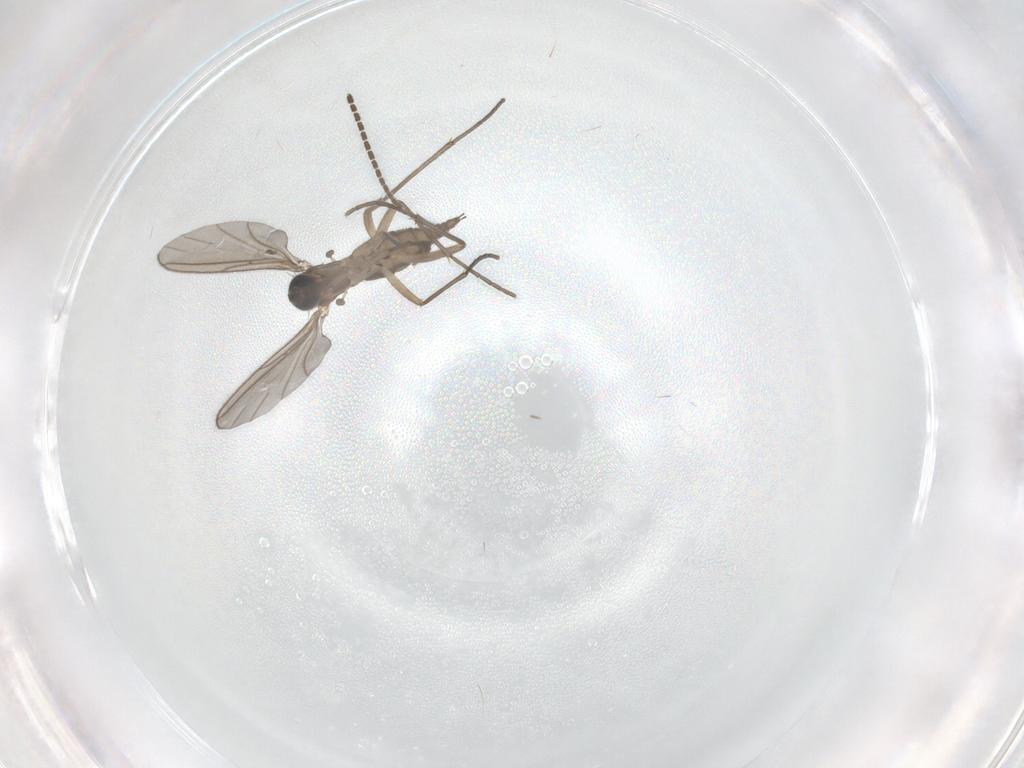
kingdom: Animalia
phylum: Arthropoda
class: Insecta
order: Diptera
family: Sciaridae
